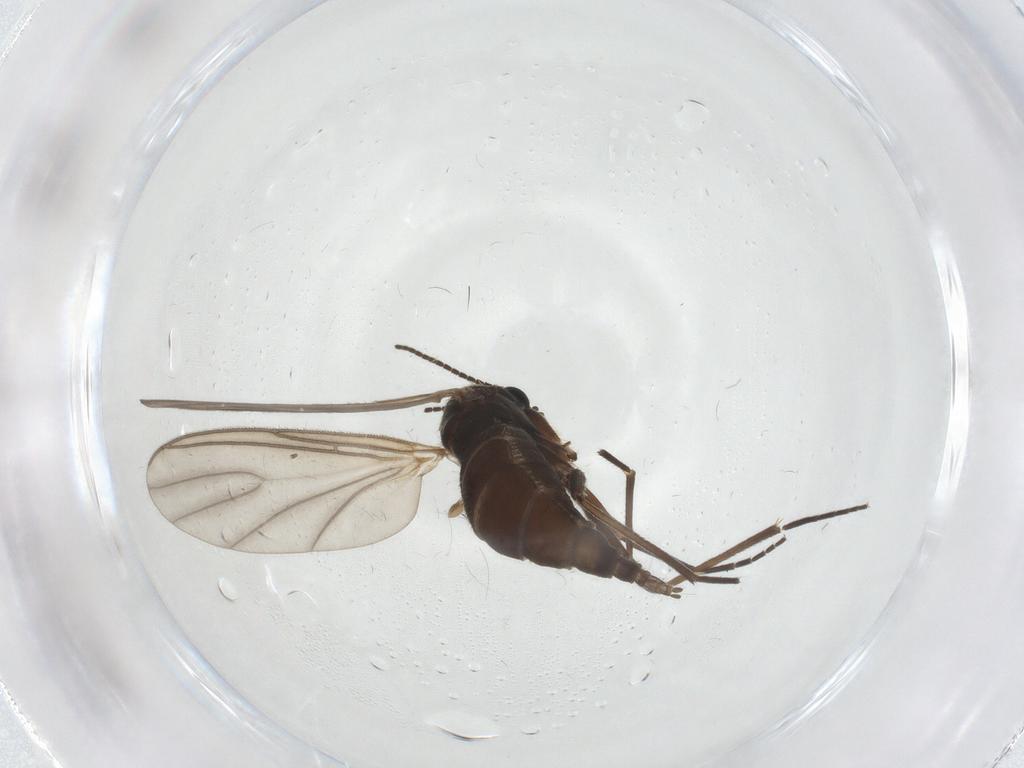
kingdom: Animalia
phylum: Arthropoda
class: Insecta
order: Diptera
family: Sciaridae
